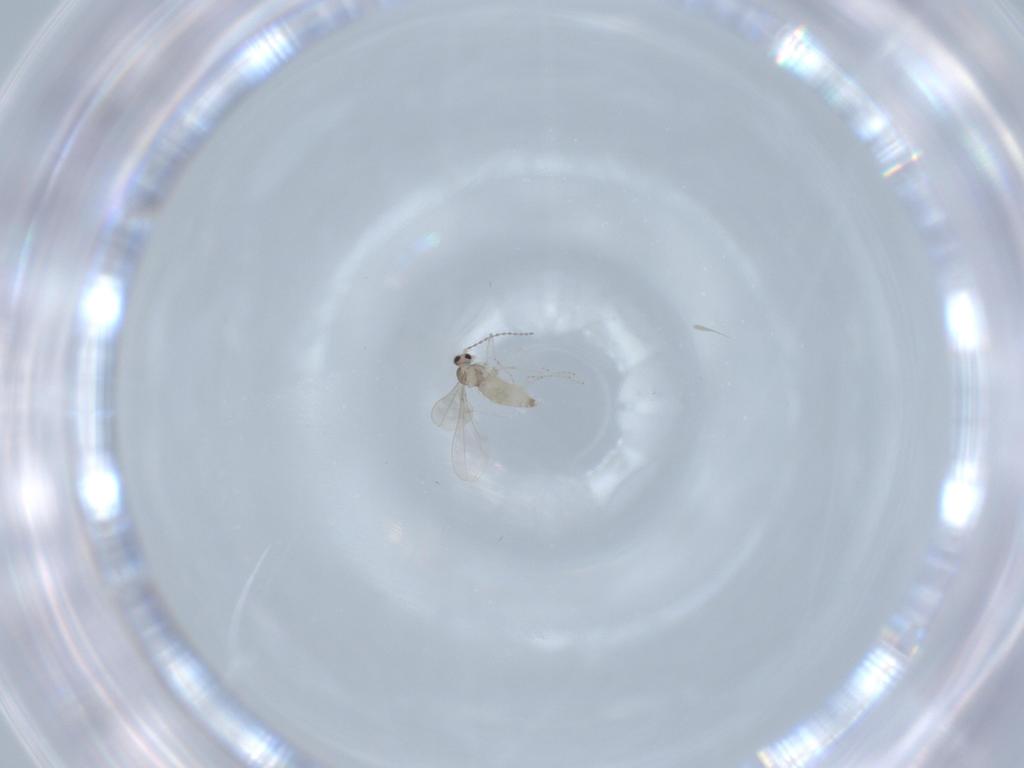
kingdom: Animalia
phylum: Arthropoda
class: Insecta
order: Diptera
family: Cecidomyiidae
